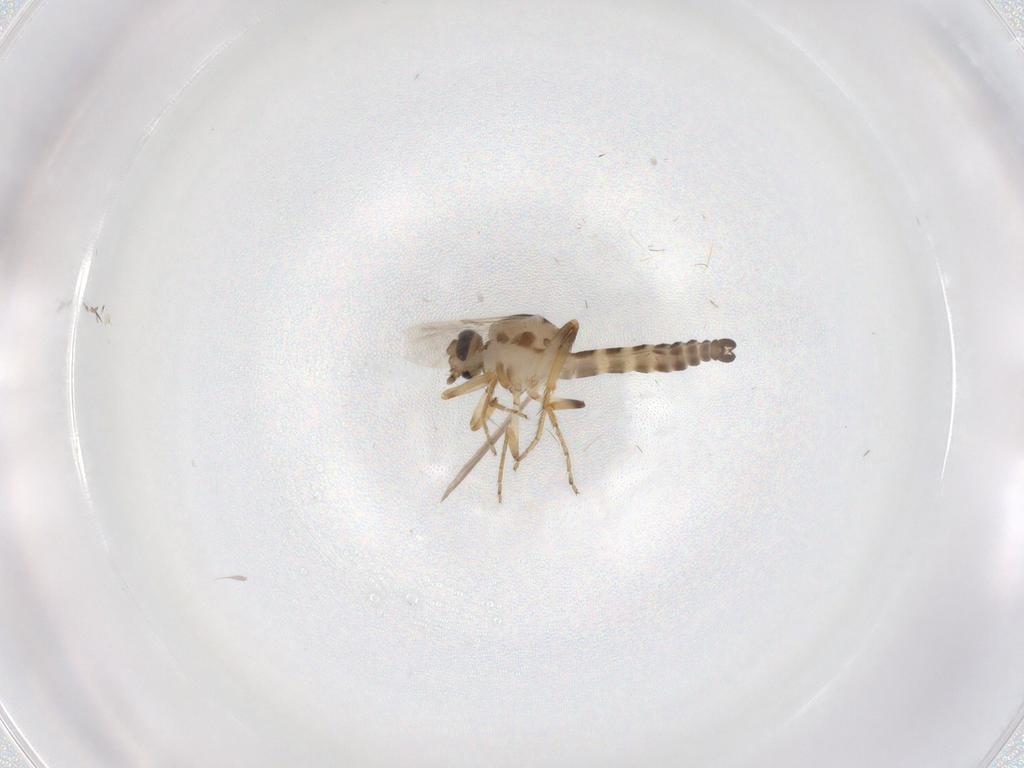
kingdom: Animalia
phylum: Arthropoda
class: Insecta
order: Diptera
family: Ceratopogonidae
